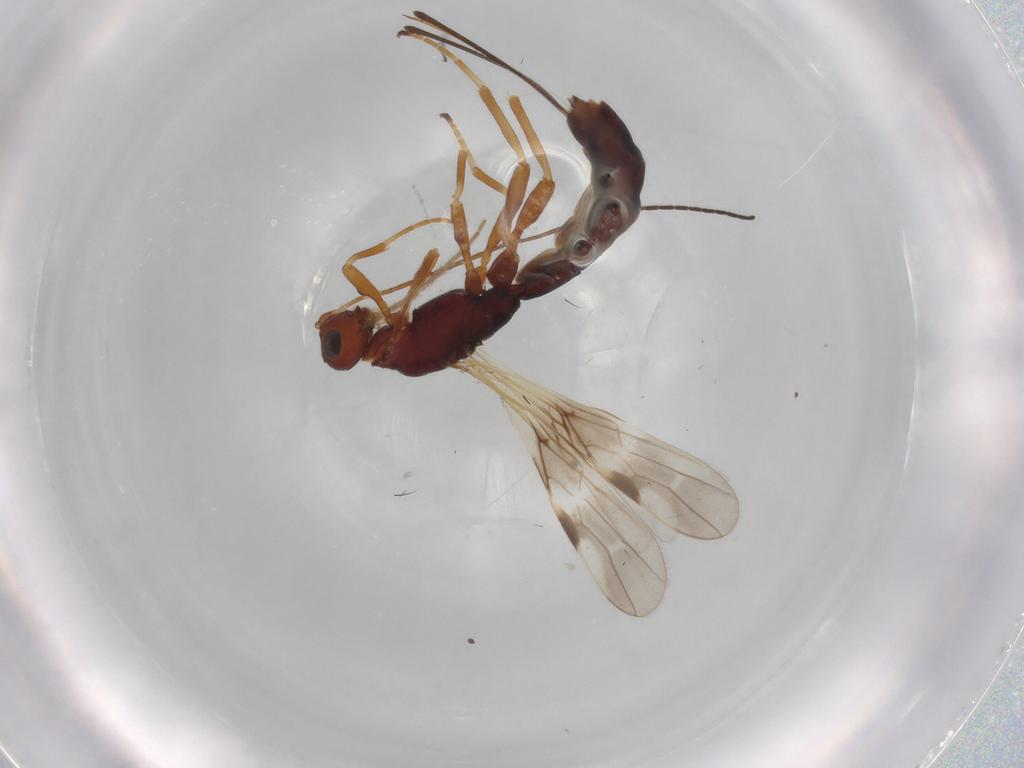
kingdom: Animalia
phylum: Arthropoda
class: Insecta
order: Hymenoptera
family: Braconidae
